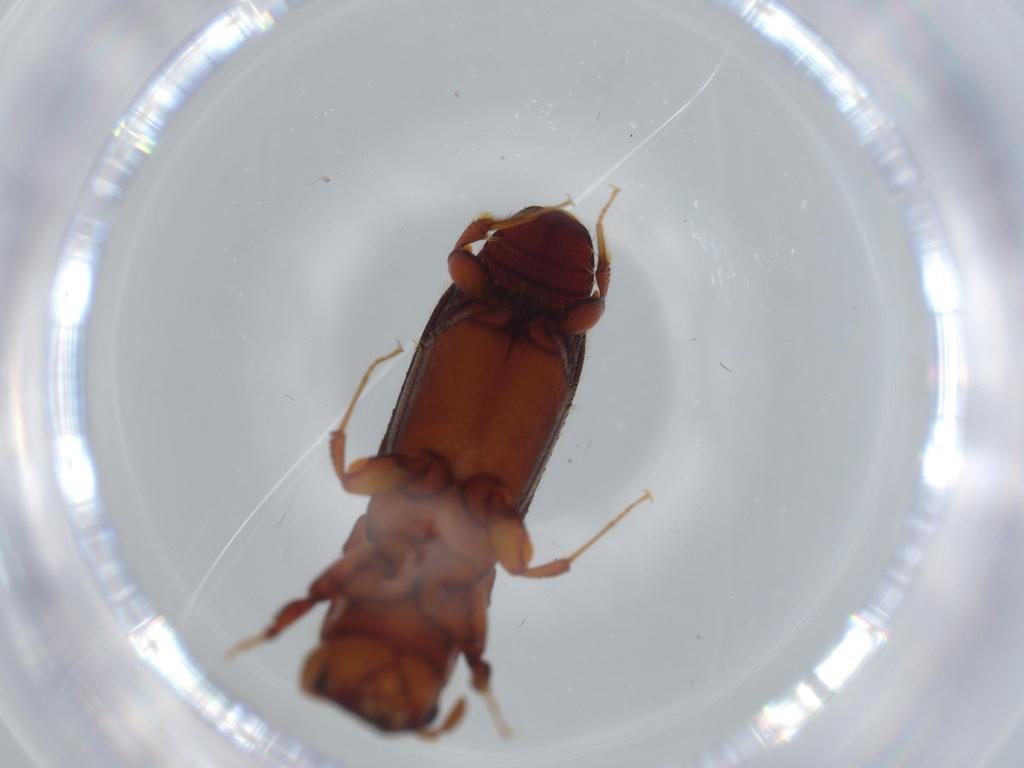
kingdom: Animalia
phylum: Arthropoda
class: Insecta
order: Coleoptera
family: Curculionidae
